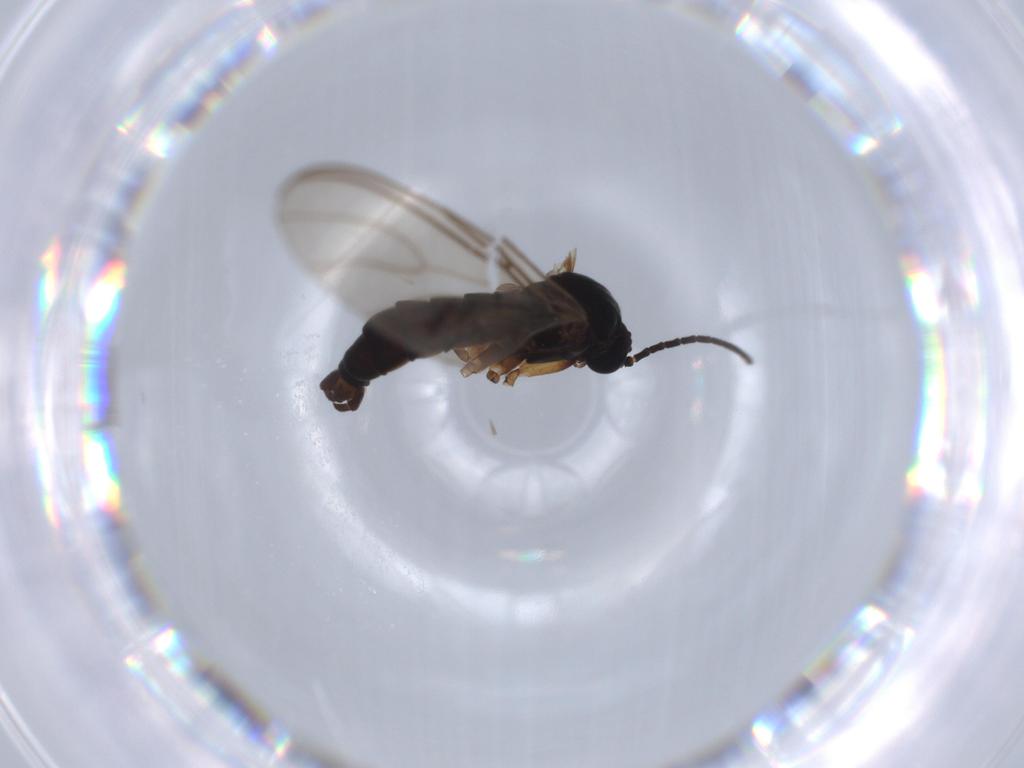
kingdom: Animalia
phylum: Arthropoda
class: Insecta
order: Diptera
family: Sciaridae
